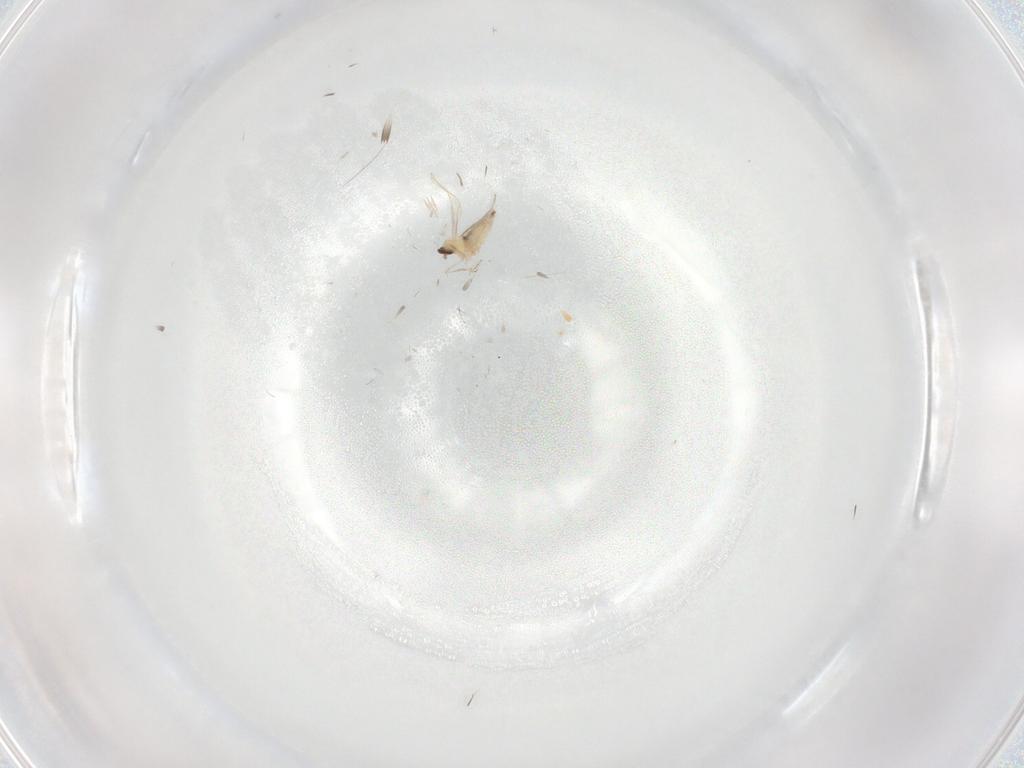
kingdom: Animalia
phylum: Arthropoda
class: Insecta
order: Diptera
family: Cecidomyiidae
